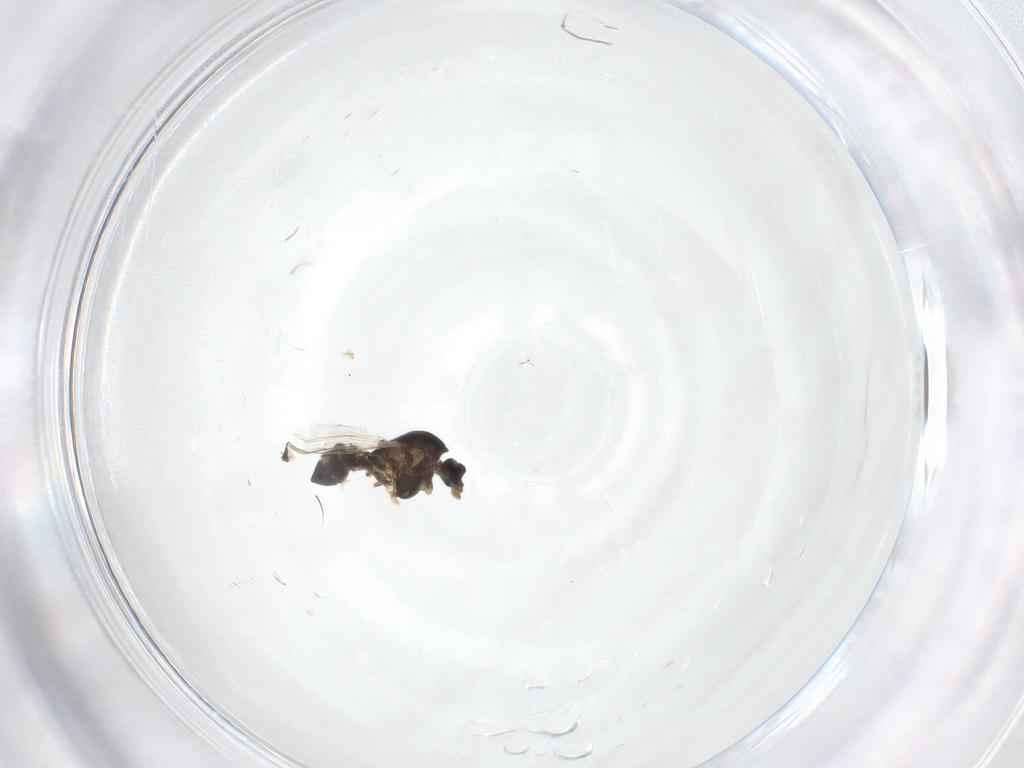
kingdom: Animalia
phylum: Arthropoda
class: Insecta
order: Diptera
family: Chironomidae
